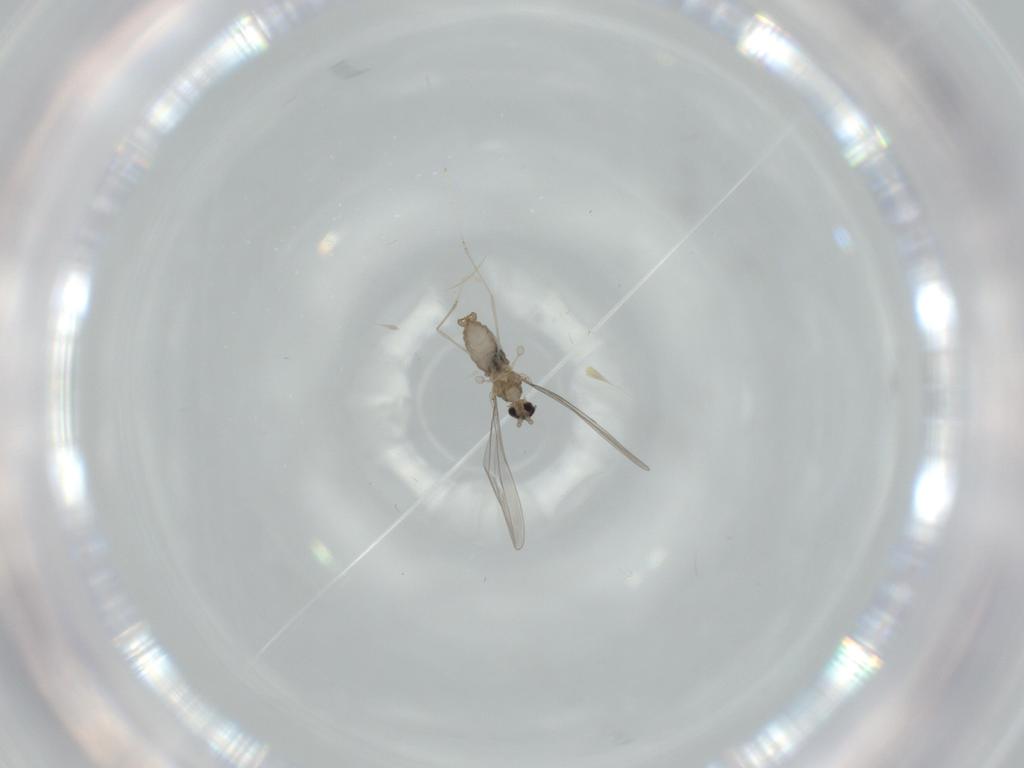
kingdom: Animalia
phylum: Arthropoda
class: Insecta
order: Diptera
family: Cecidomyiidae
